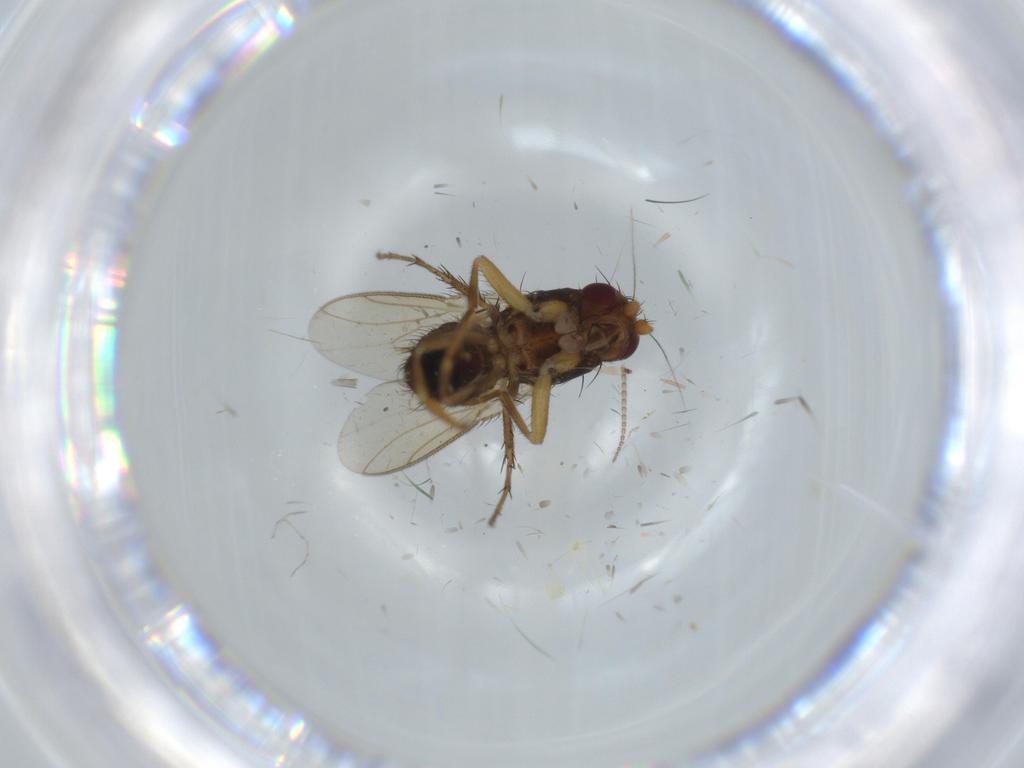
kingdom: Animalia
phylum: Arthropoda
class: Insecta
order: Diptera
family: Sphaeroceridae
